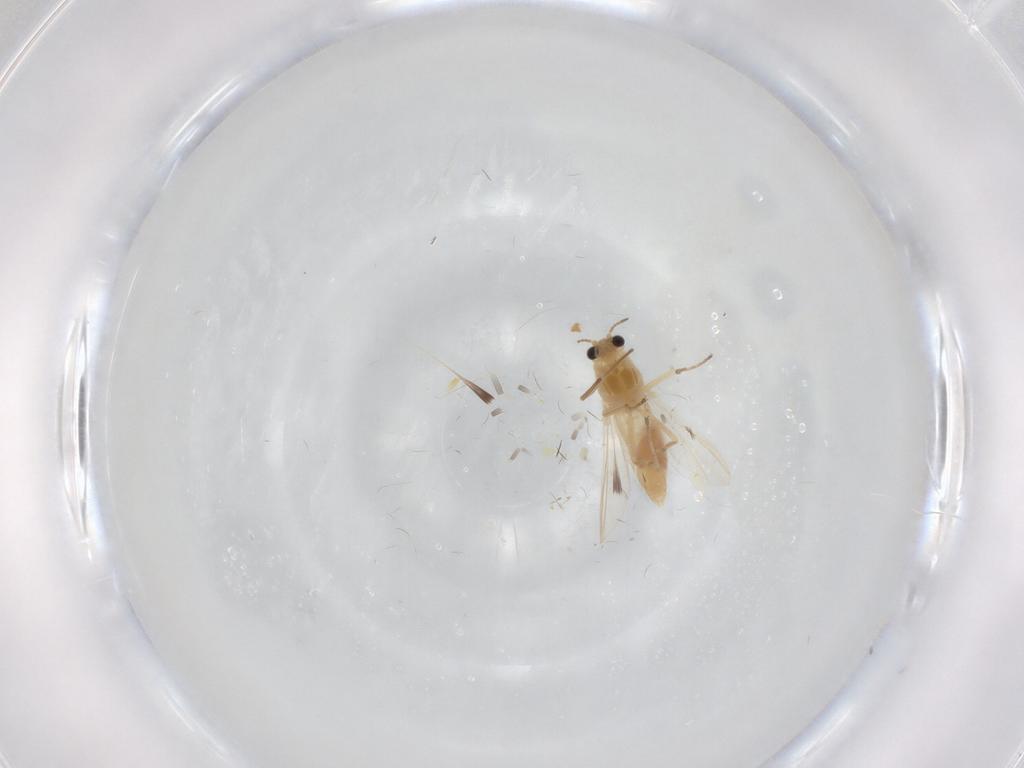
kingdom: Animalia
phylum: Arthropoda
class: Insecta
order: Diptera
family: Chironomidae
